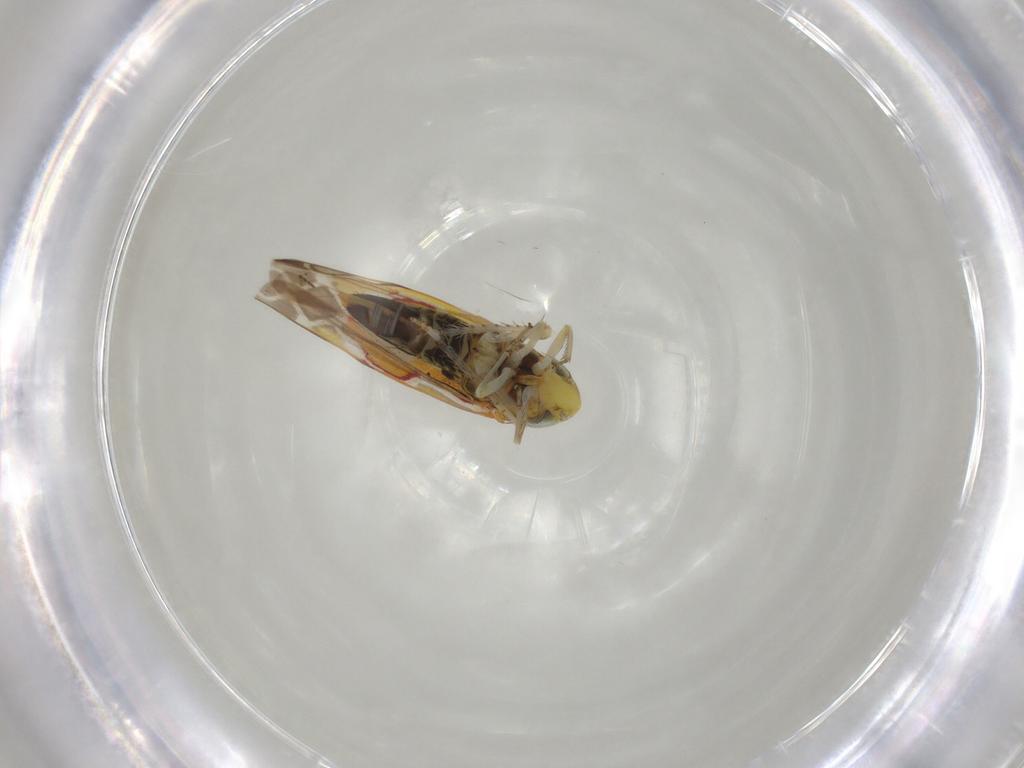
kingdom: Animalia
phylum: Arthropoda
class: Insecta
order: Hemiptera
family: Cicadellidae
